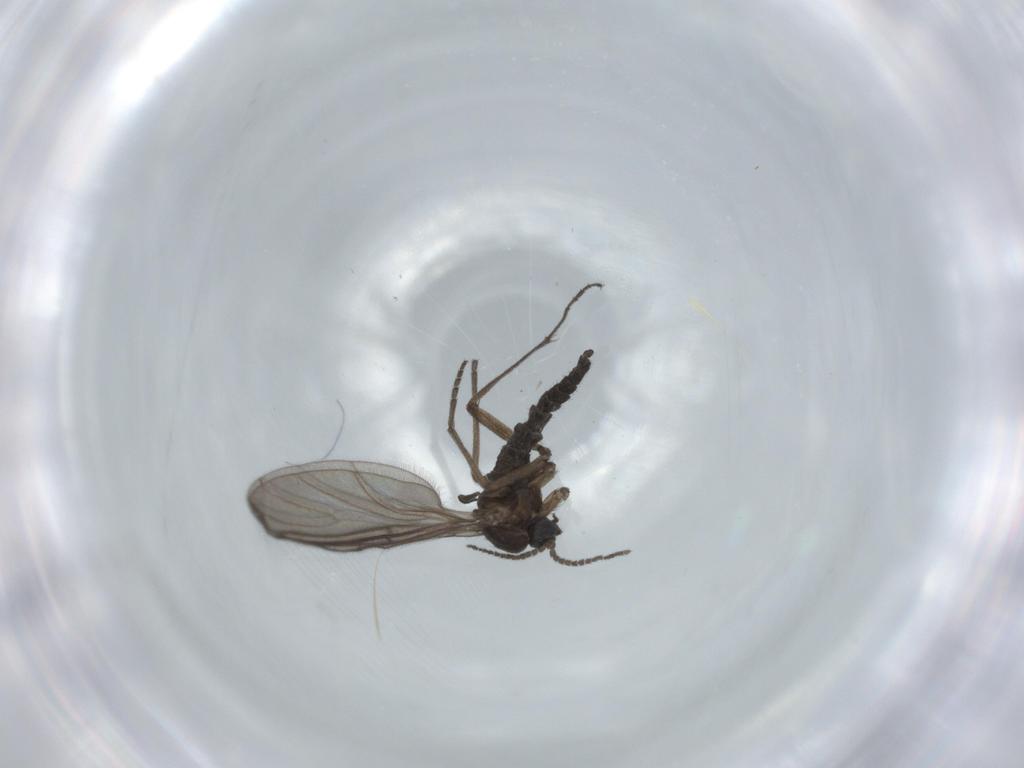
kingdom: Animalia
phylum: Arthropoda
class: Insecta
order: Diptera
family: Sciaridae
